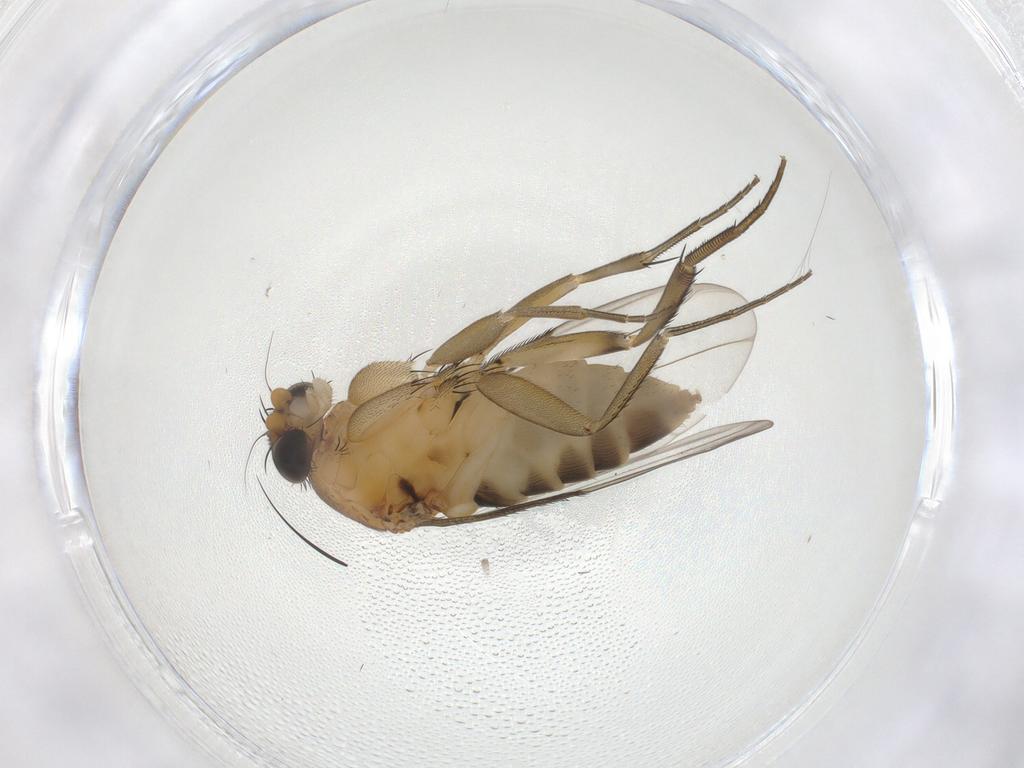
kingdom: Animalia
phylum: Arthropoda
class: Insecta
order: Diptera
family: Phoridae
